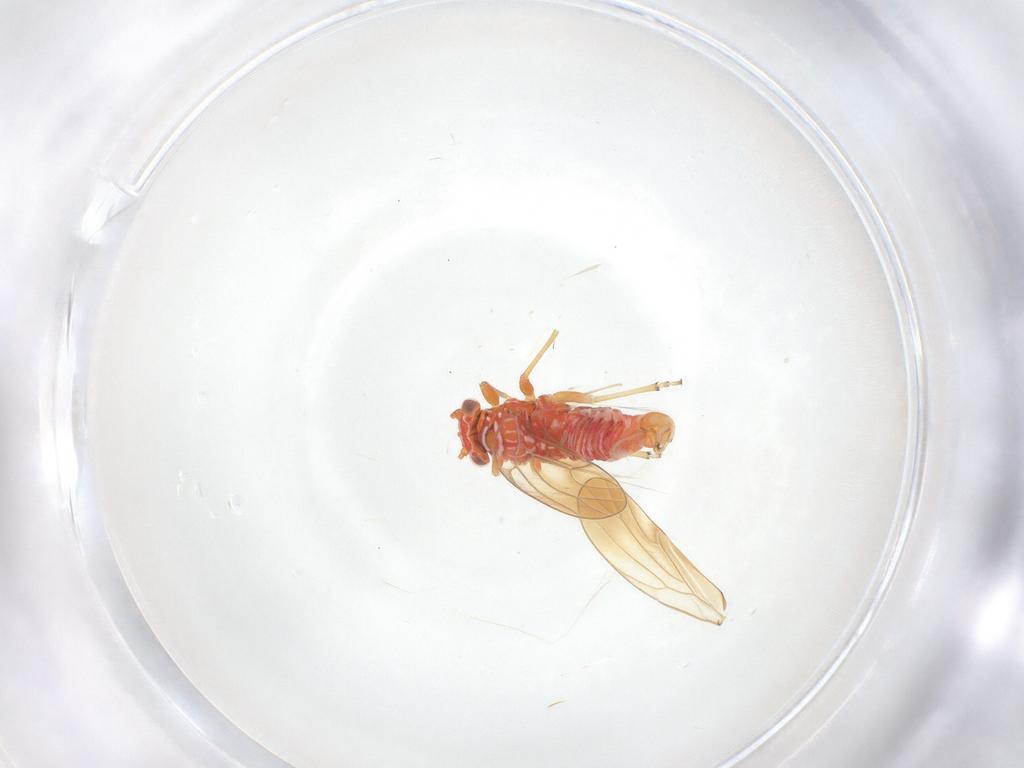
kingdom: Animalia
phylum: Arthropoda
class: Insecta
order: Hemiptera
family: Psyllidae
